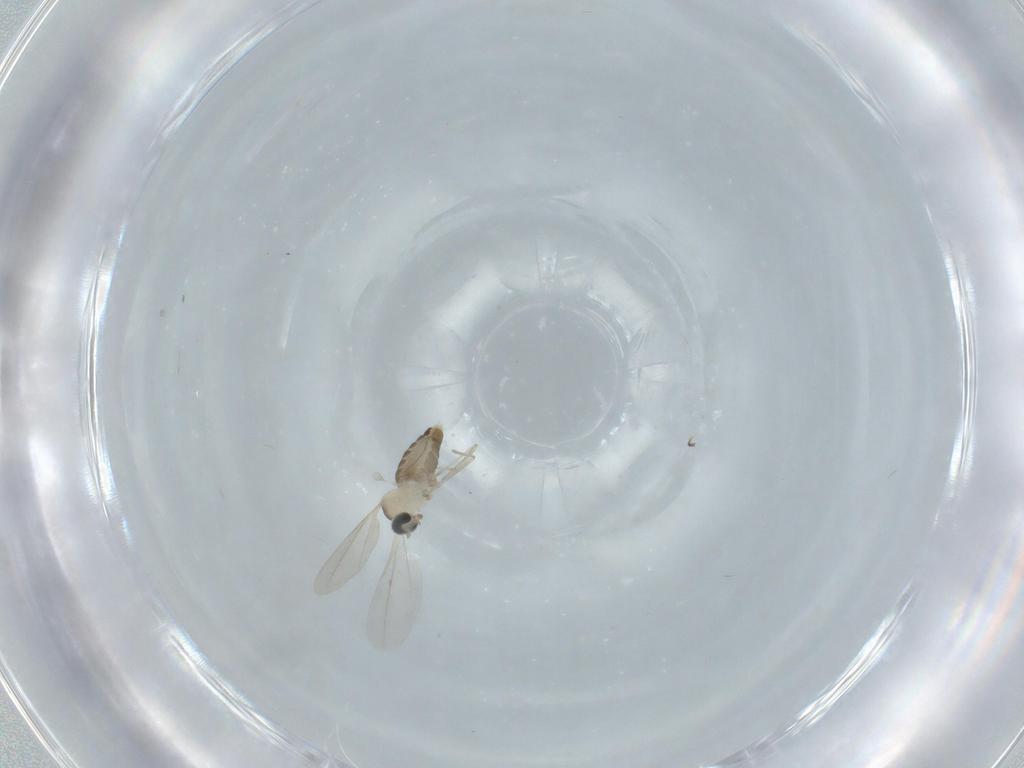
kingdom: Animalia
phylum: Arthropoda
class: Insecta
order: Diptera
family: Cecidomyiidae
